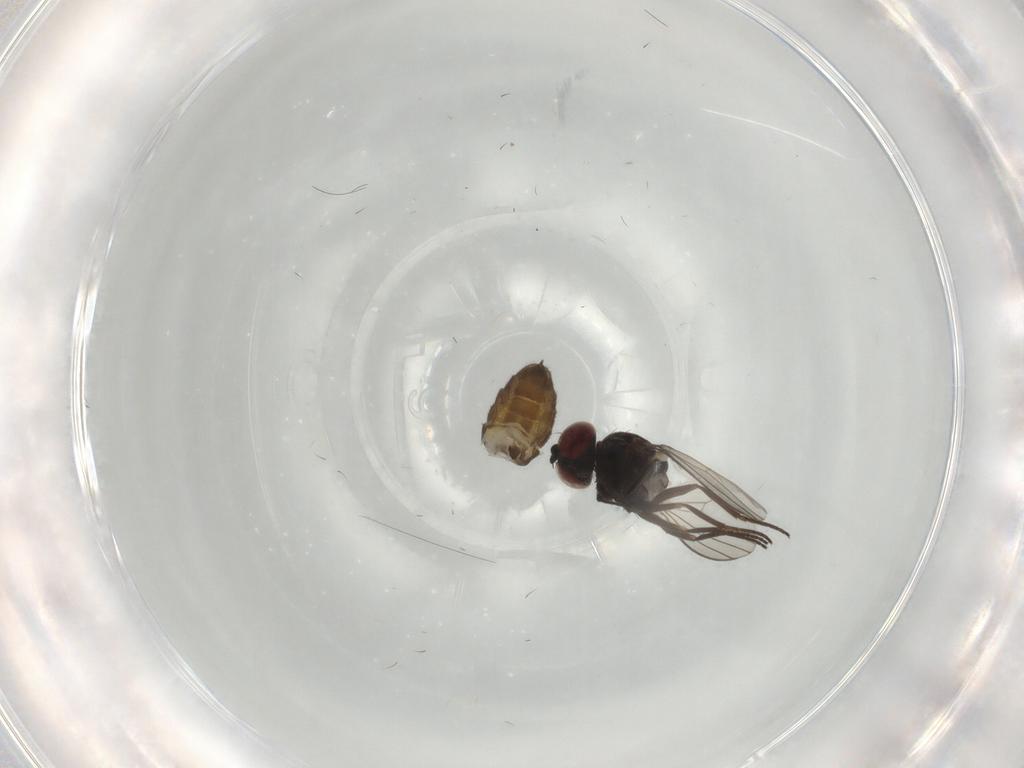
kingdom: Animalia
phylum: Arthropoda
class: Insecta
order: Diptera
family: Dolichopodidae
